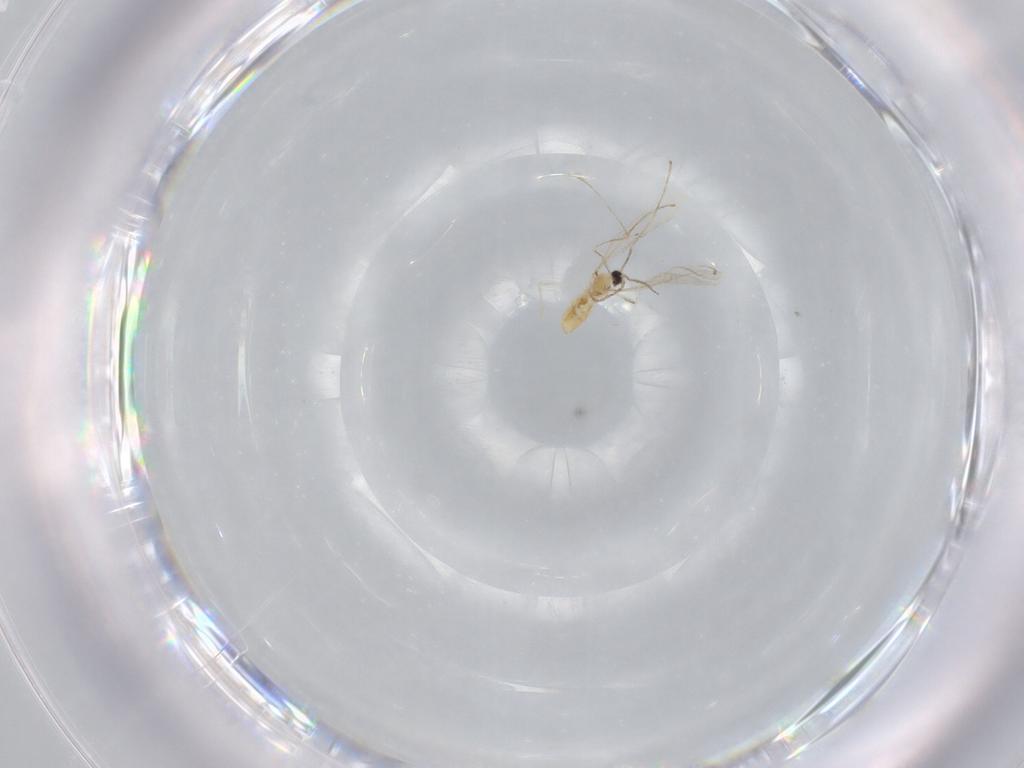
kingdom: Animalia
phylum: Arthropoda
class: Insecta
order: Diptera
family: Cecidomyiidae
